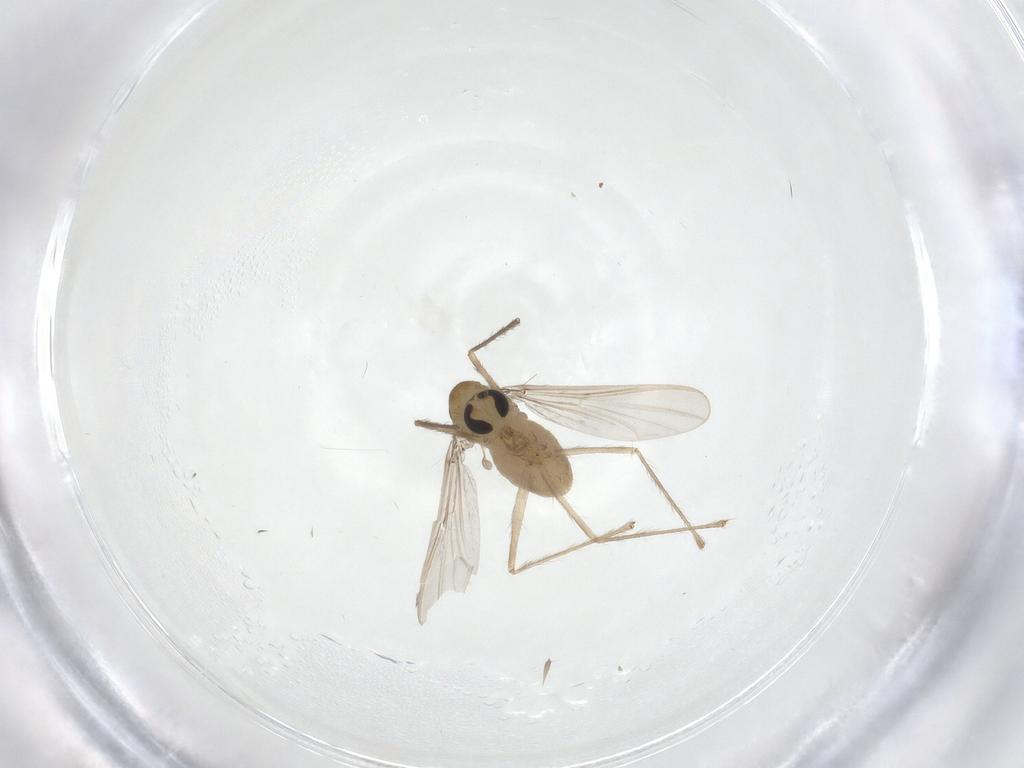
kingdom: Animalia
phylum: Arthropoda
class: Insecta
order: Diptera
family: Chironomidae
